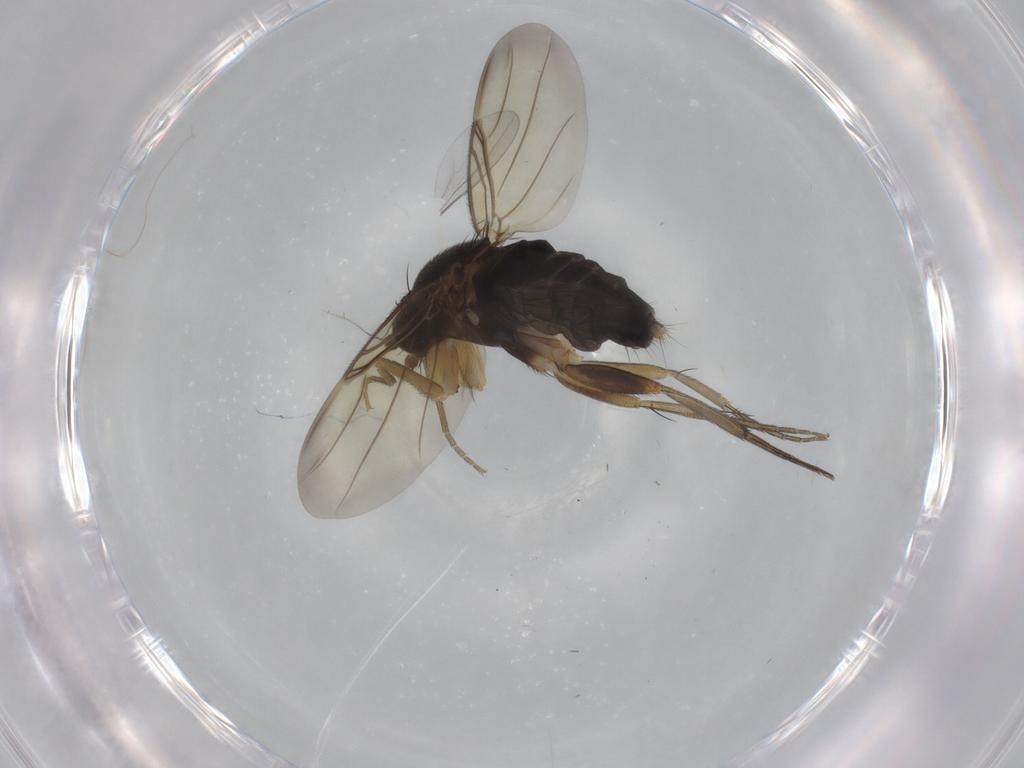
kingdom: Animalia
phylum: Arthropoda
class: Insecta
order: Diptera
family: Phoridae
